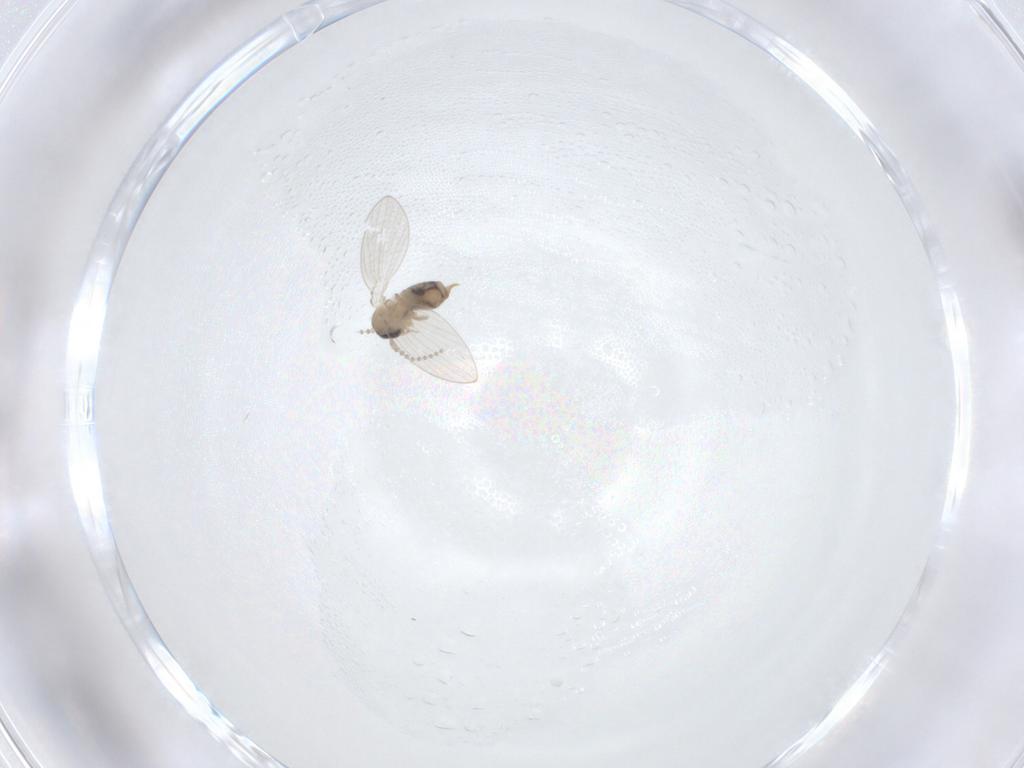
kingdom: Animalia
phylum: Arthropoda
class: Insecta
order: Diptera
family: Psychodidae
